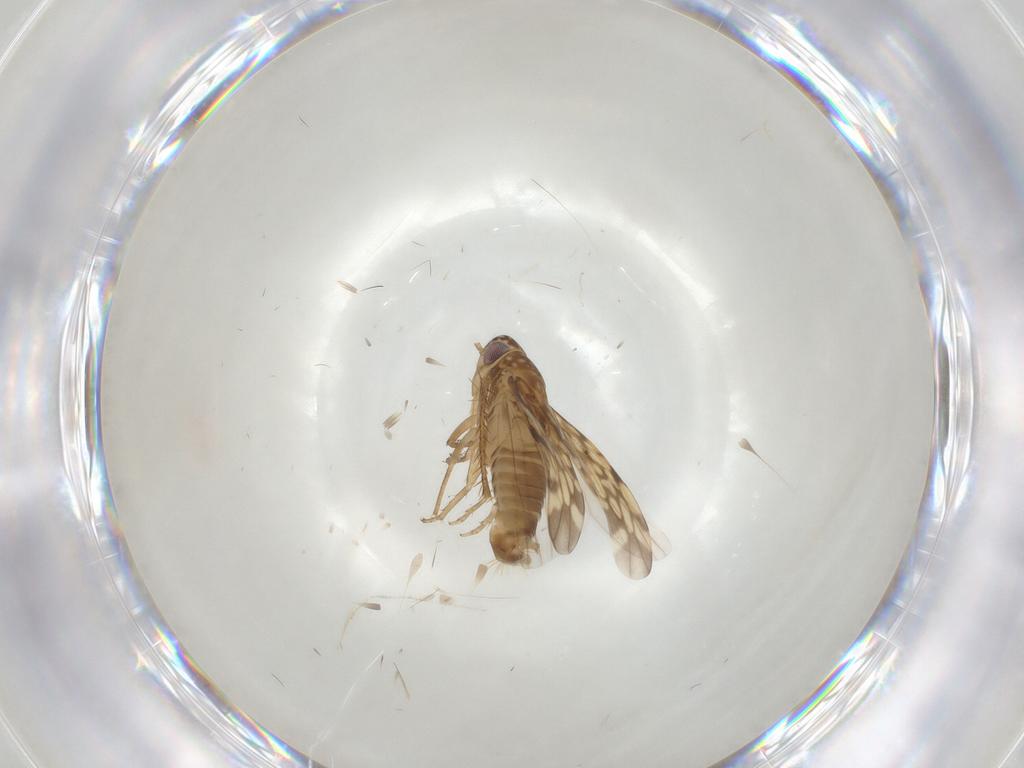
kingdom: Animalia
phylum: Arthropoda
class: Insecta
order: Hemiptera
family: Cicadellidae
